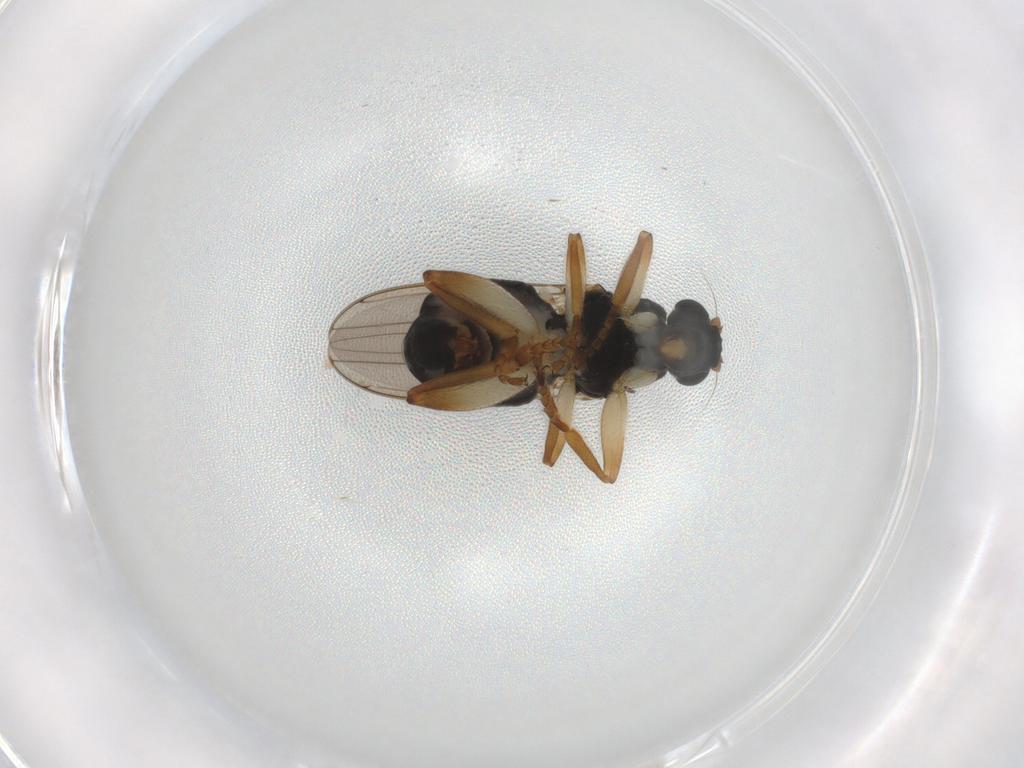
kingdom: Animalia
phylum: Arthropoda
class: Insecta
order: Diptera
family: Sphaeroceridae
